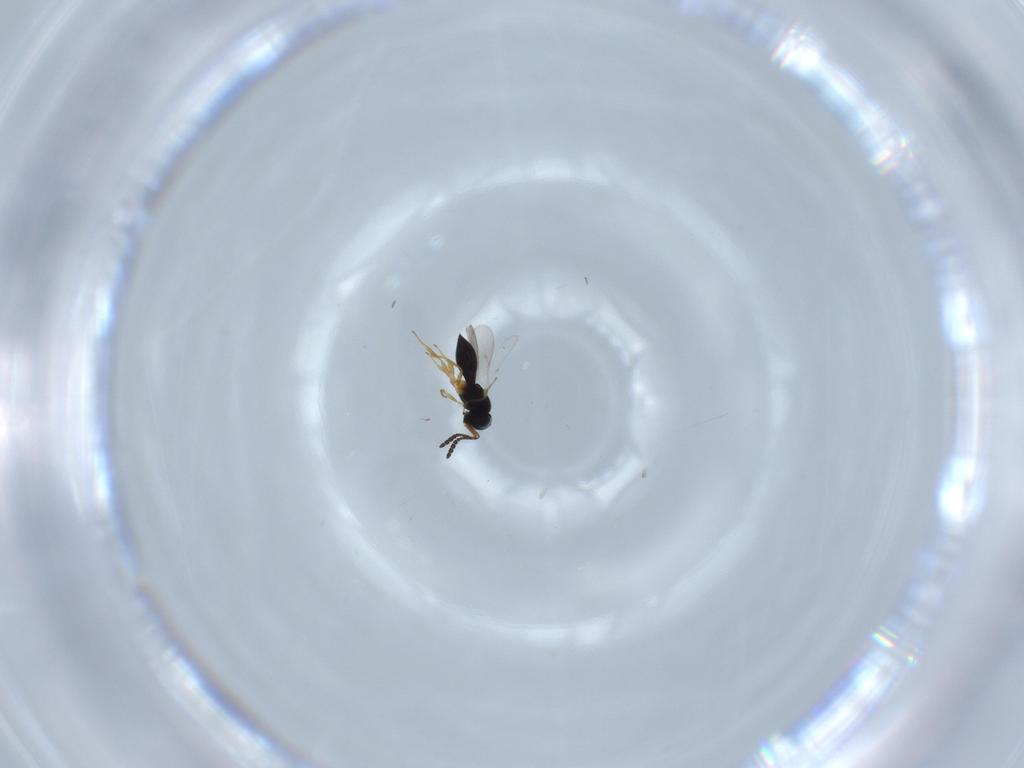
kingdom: Animalia
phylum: Arthropoda
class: Insecta
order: Hymenoptera
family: Scelionidae
